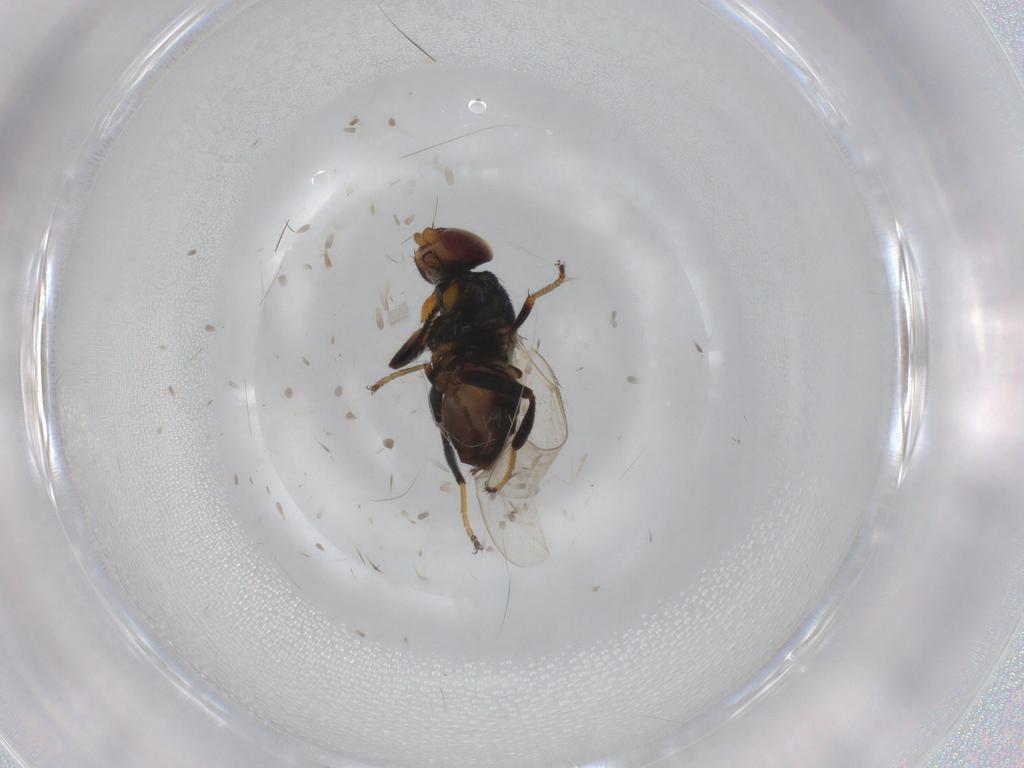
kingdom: Animalia
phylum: Arthropoda
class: Insecta
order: Diptera
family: Chloropidae
